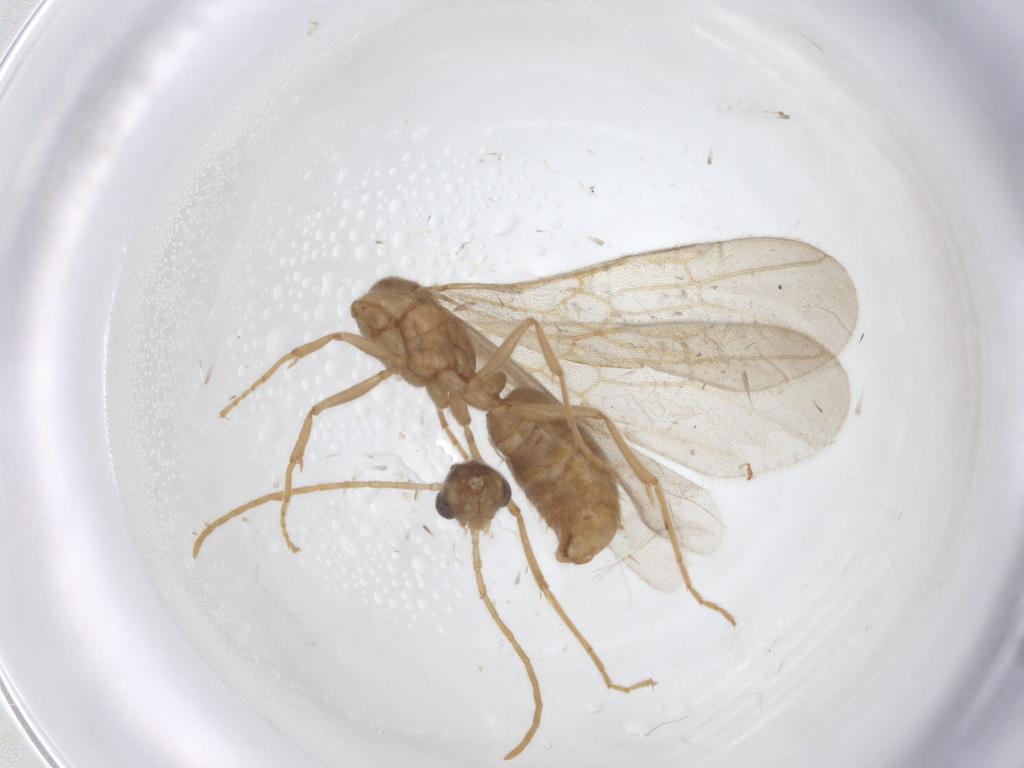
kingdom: Animalia
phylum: Arthropoda
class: Insecta
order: Hymenoptera
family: Formicidae
